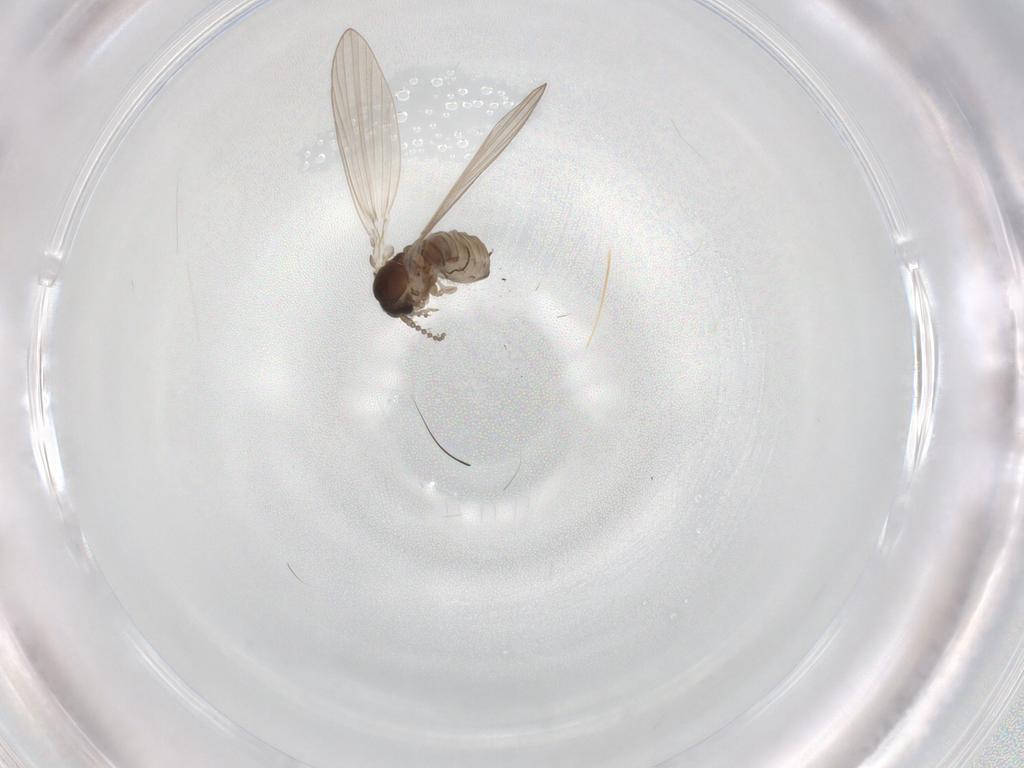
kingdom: Animalia
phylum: Arthropoda
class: Insecta
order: Diptera
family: Psychodidae
